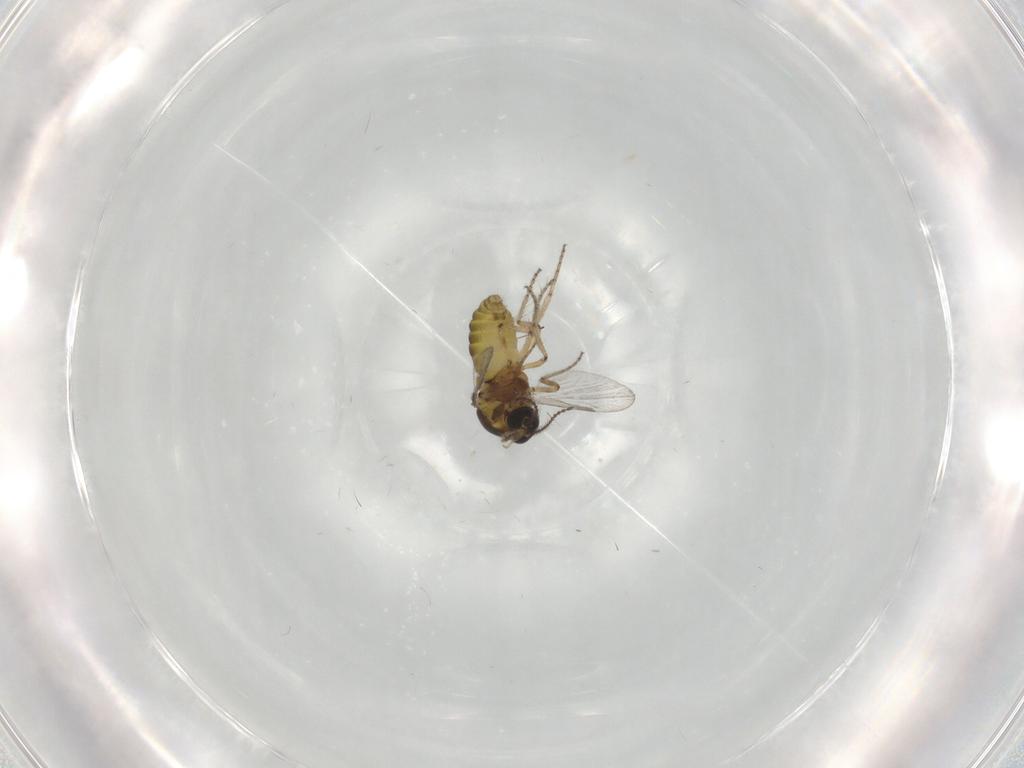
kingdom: Animalia
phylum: Arthropoda
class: Insecta
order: Diptera
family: Ceratopogonidae
